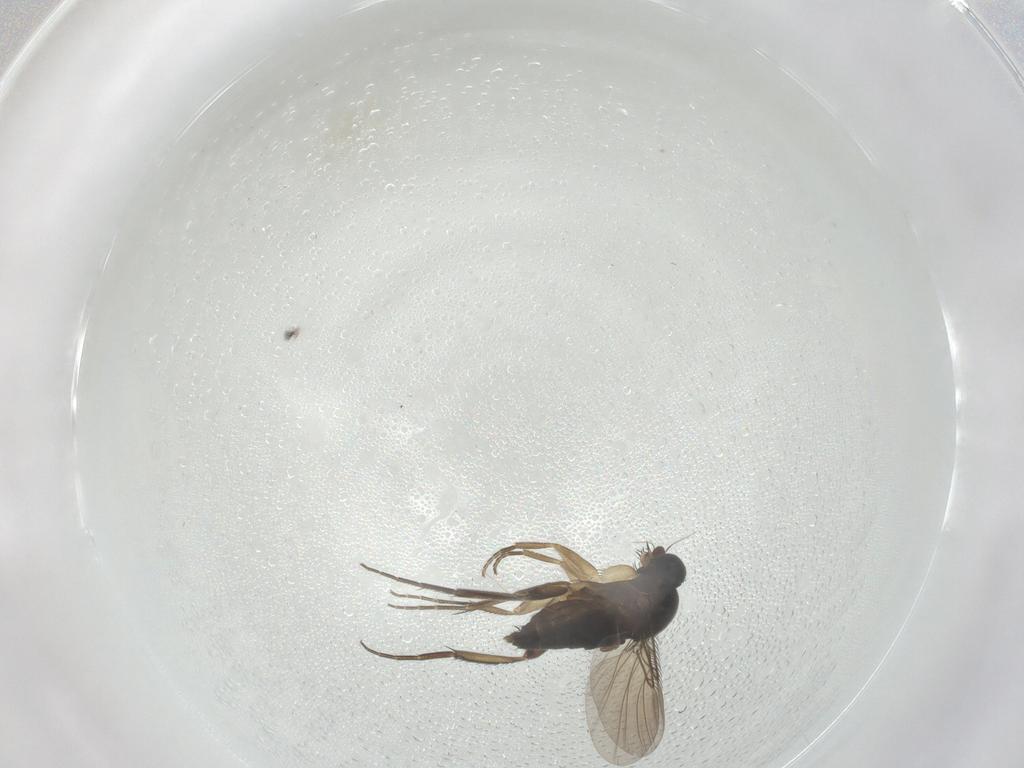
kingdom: Animalia
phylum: Arthropoda
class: Insecta
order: Diptera
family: Phoridae
